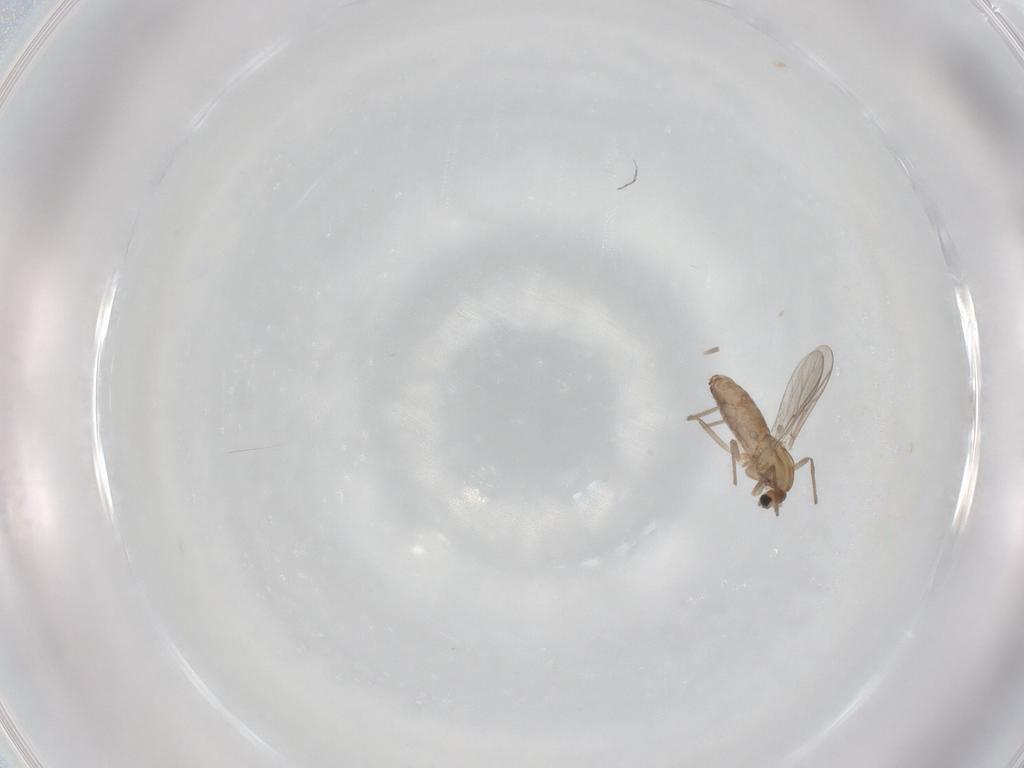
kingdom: Animalia
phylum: Arthropoda
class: Insecta
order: Diptera
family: Chironomidae
